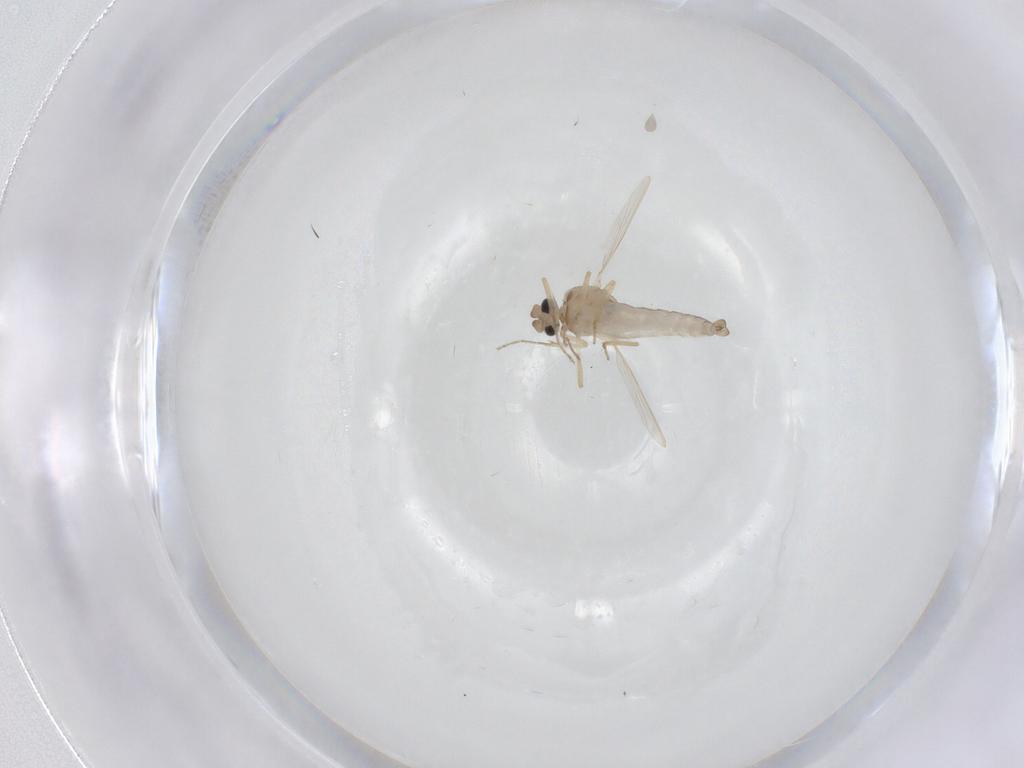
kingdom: Animalia
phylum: Arthropoda
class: Insecta
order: Diptera
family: Ceratopogonidae
